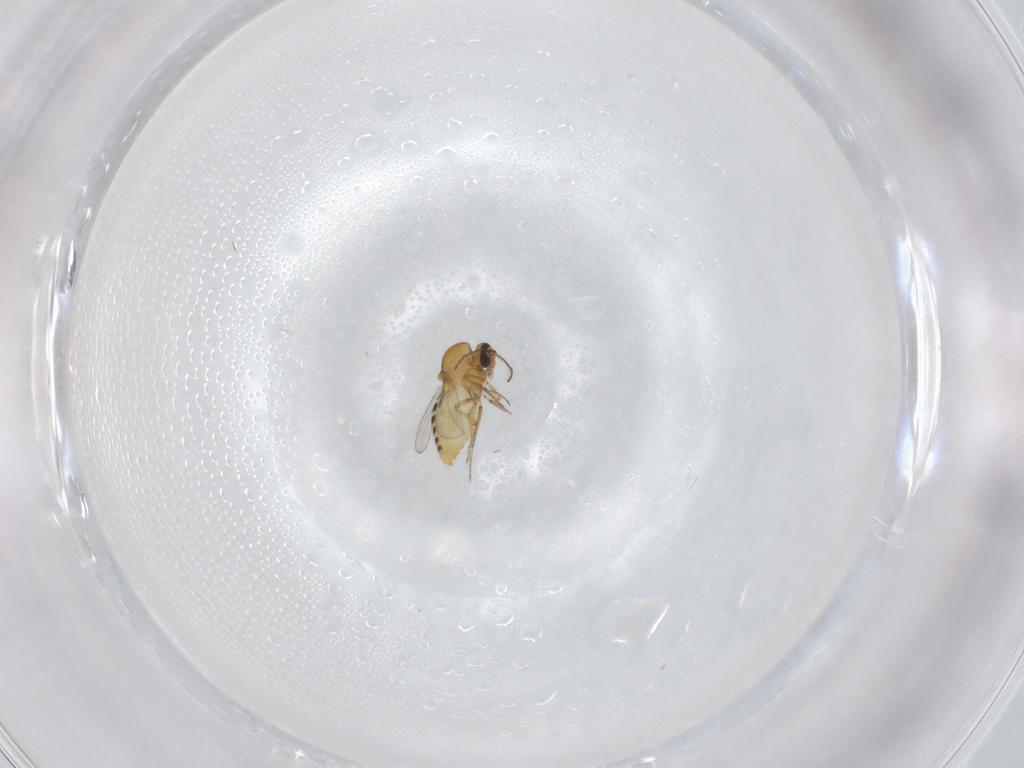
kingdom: Animalia
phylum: Arthropoda
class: Insecta
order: Diptera
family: Ceratopogonidae
